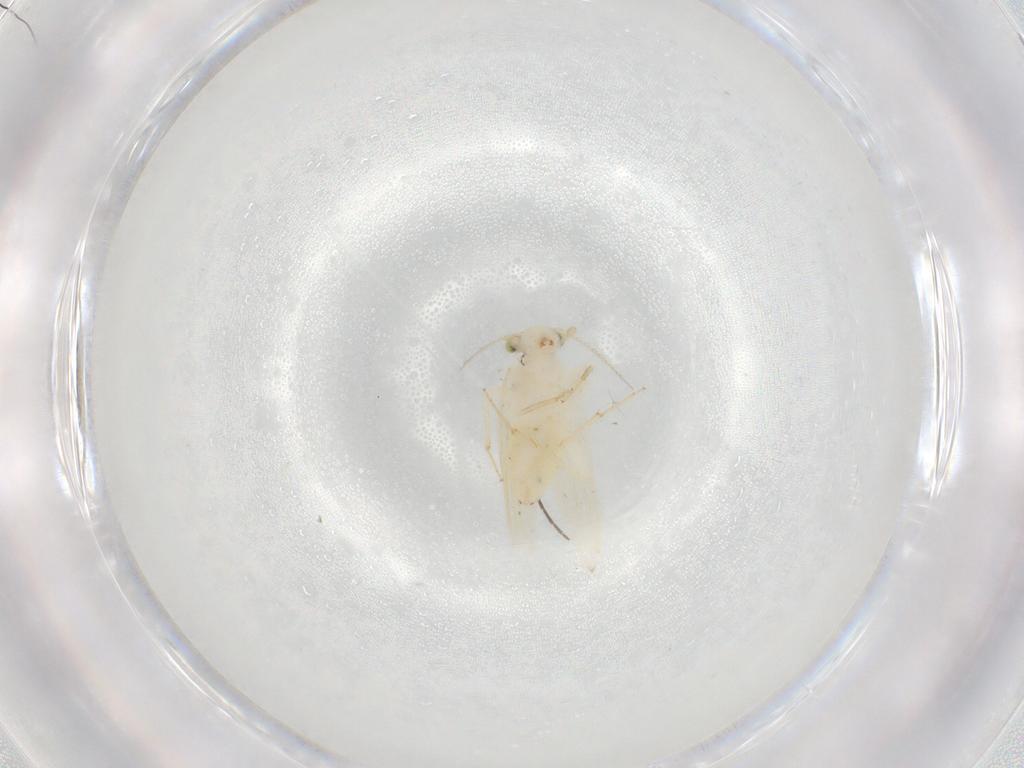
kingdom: Animalia
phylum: Arthropoda
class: Insecta
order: Psocodea
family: Lepidopsocidae
